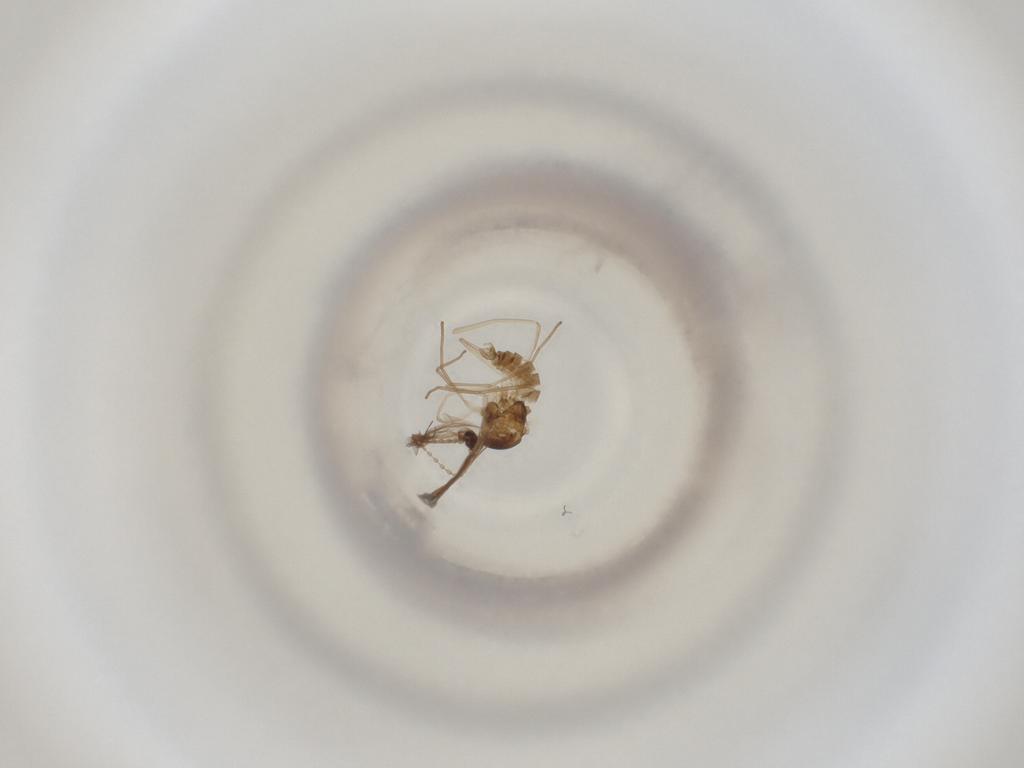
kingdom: Animalia
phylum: Arthropoda
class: Insecta
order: Diptera
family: Cecidomyiidae
